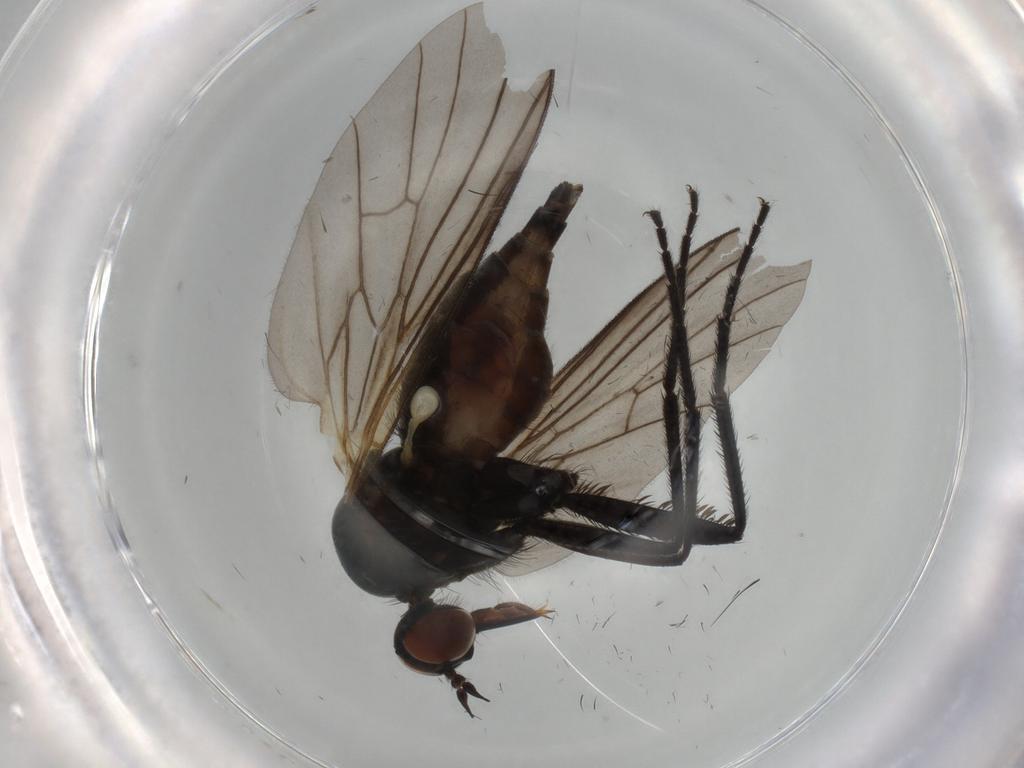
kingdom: Animalia
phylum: Arthropoda
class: Insecta
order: Diptera
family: Empididae
